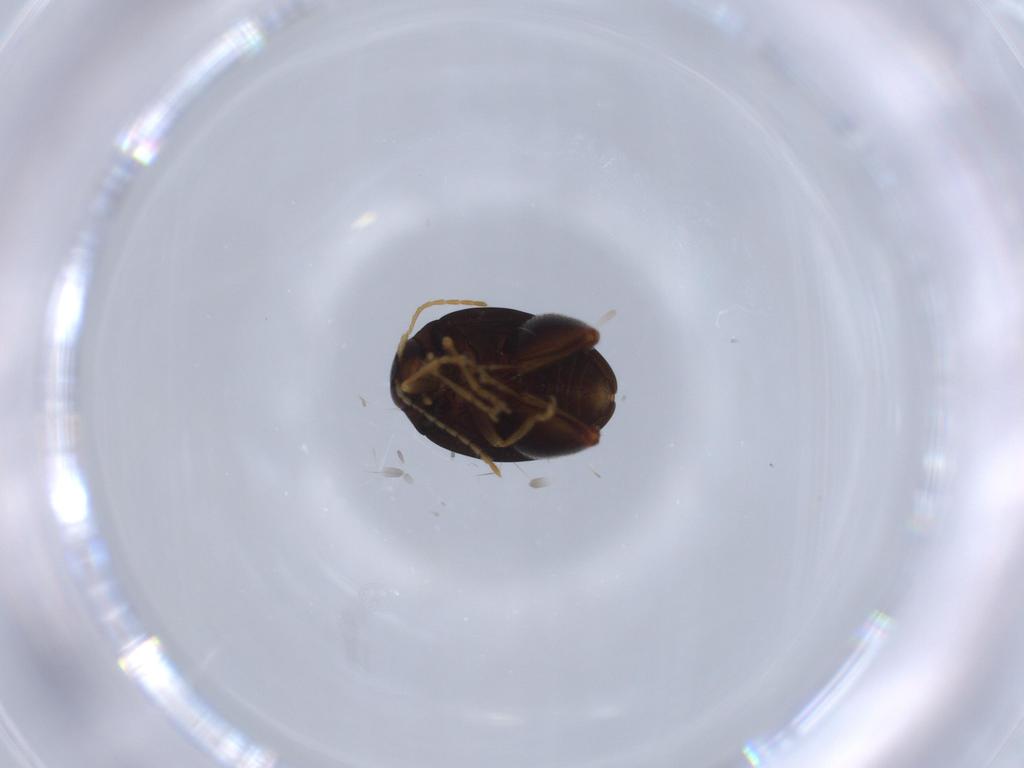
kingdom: Animalia
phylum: Arthropoda
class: Insecta
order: Coleoptera
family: Chrysomelidae
